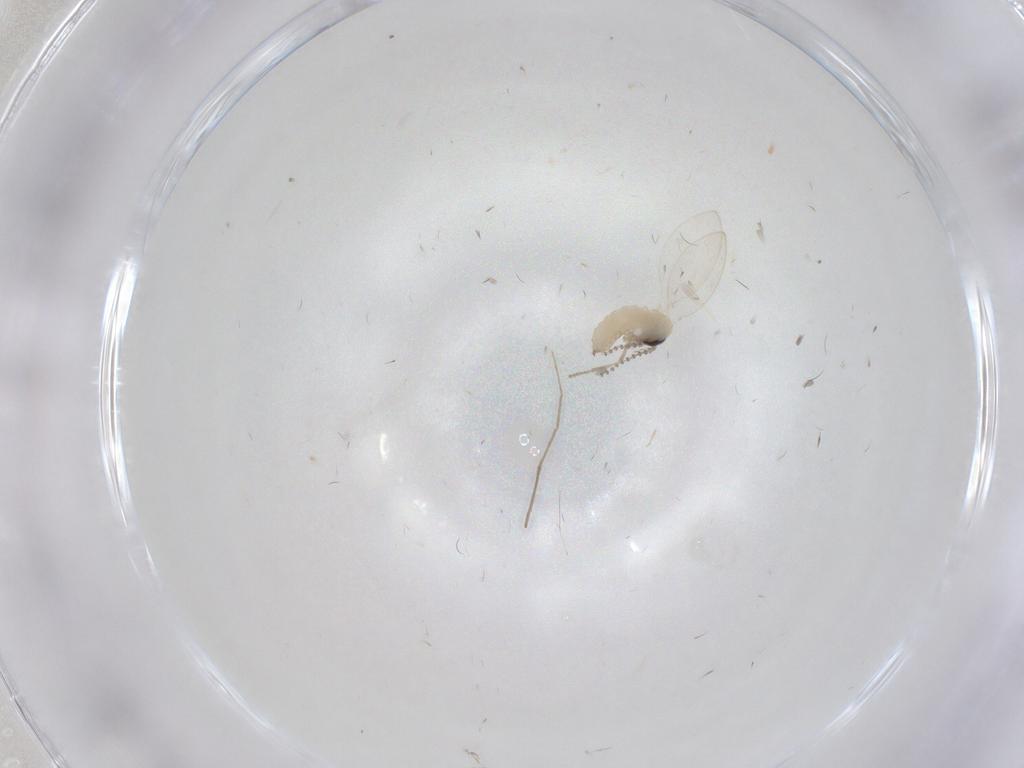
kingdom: Animalia
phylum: Arthropoda
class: Insecta
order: Diptera
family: Psychodidae
